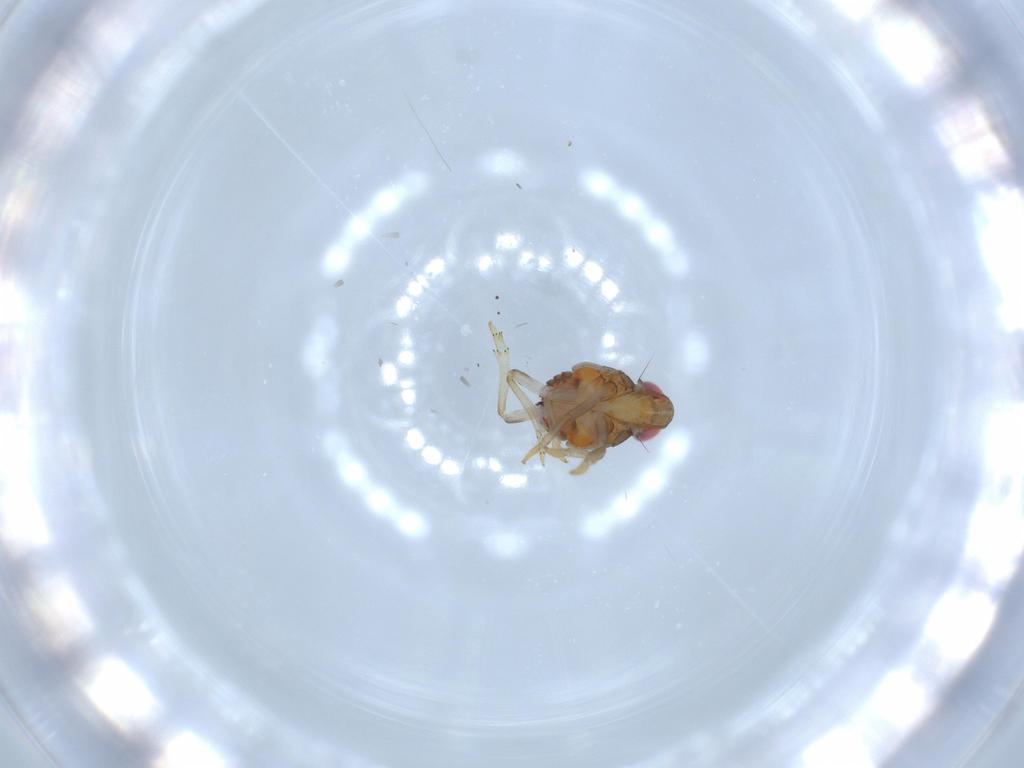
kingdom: Animalia
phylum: Arthropoda
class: Insecta
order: Hemiptera
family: Issidae
